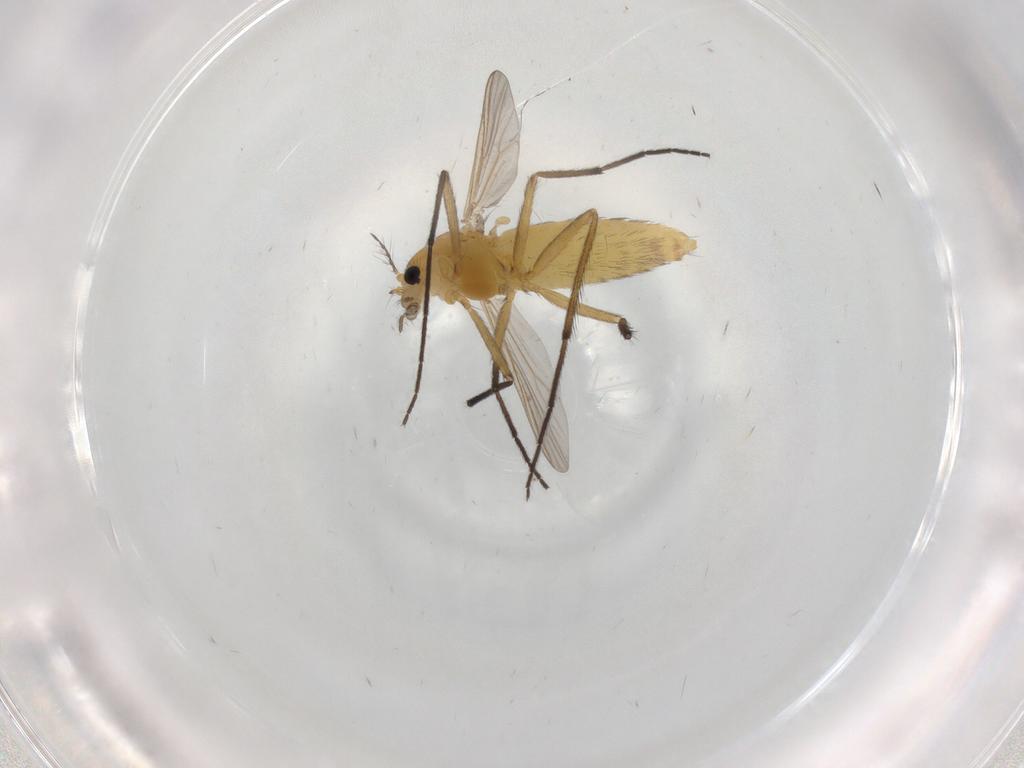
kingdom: Animalia
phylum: Arthropoda
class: Insecta
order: Diptera
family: Chironomidae
